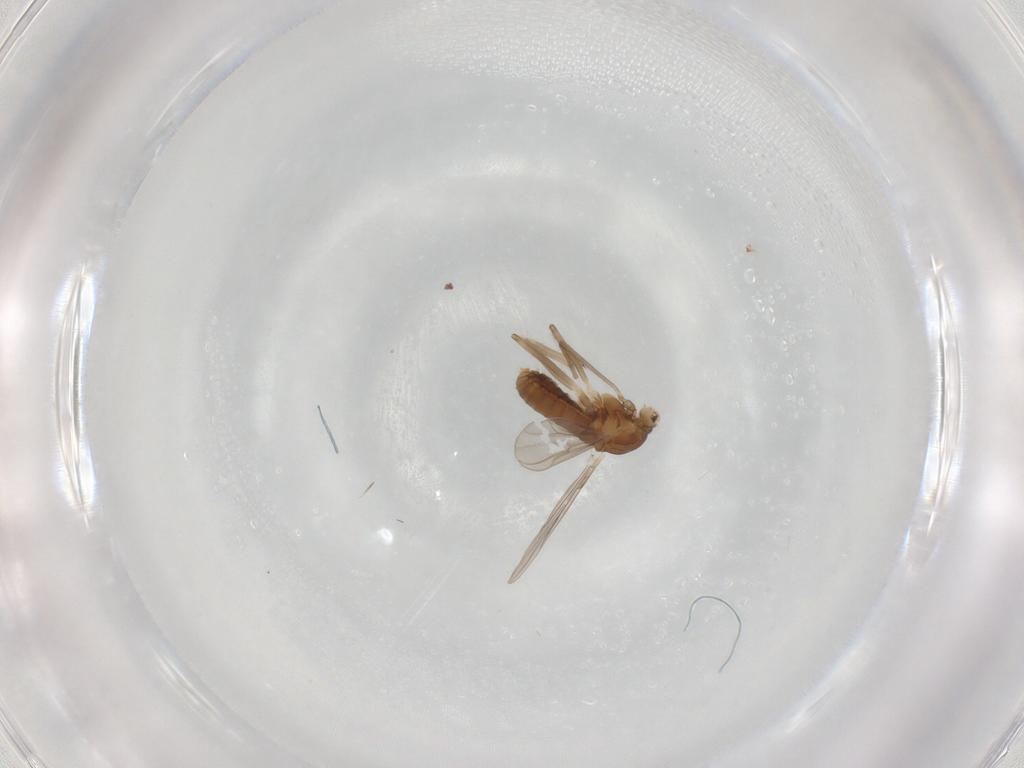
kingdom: Animalia
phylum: Arthropoda
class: Insecta
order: Diptera
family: Chironomidae
